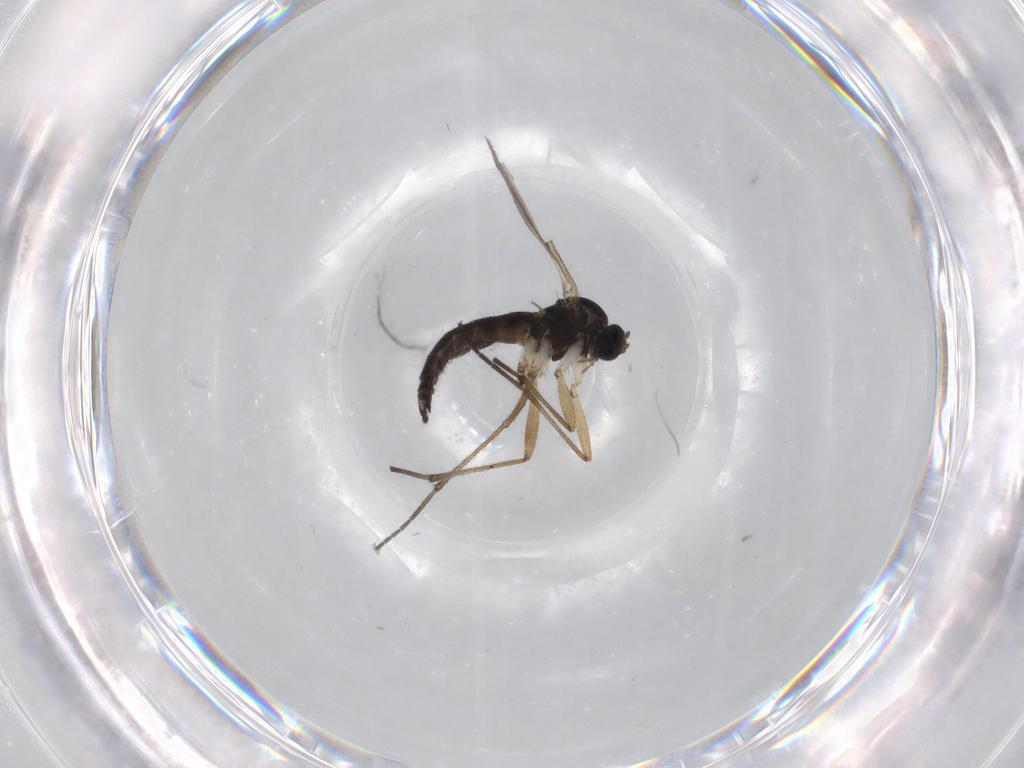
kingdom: Animalia
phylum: Arthropoda
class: Insecta
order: Diptera
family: Sciaridae
